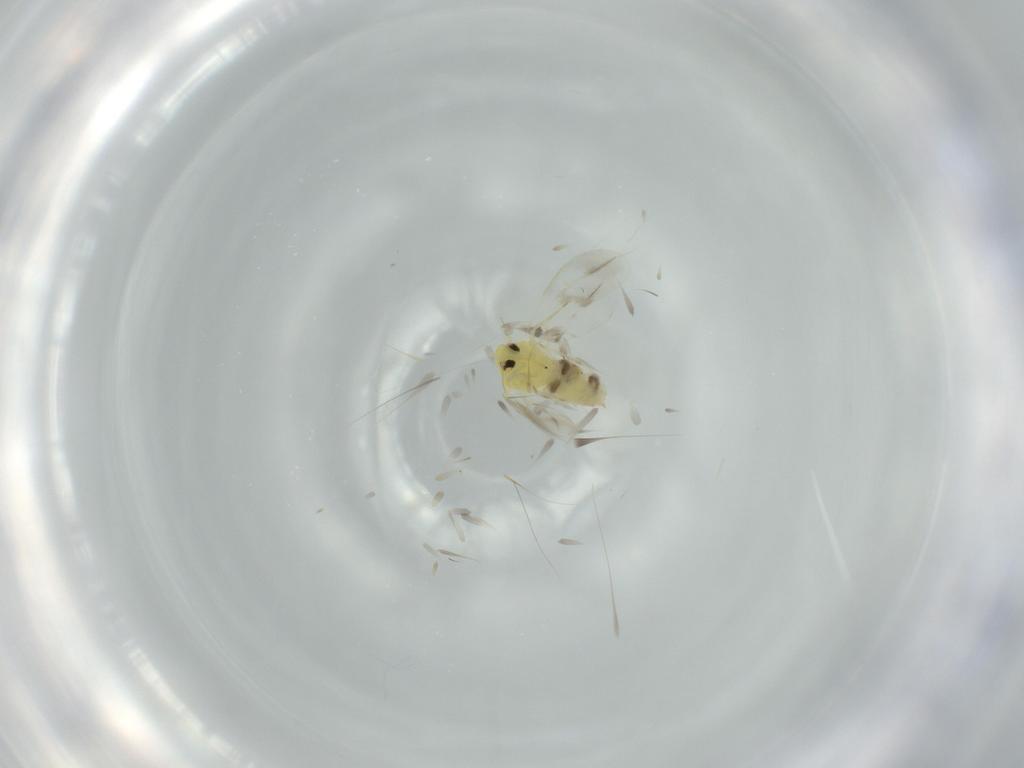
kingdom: Animalia
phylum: Arthropoda
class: Insecta
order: Hemiptera
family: Aleyrodidae
